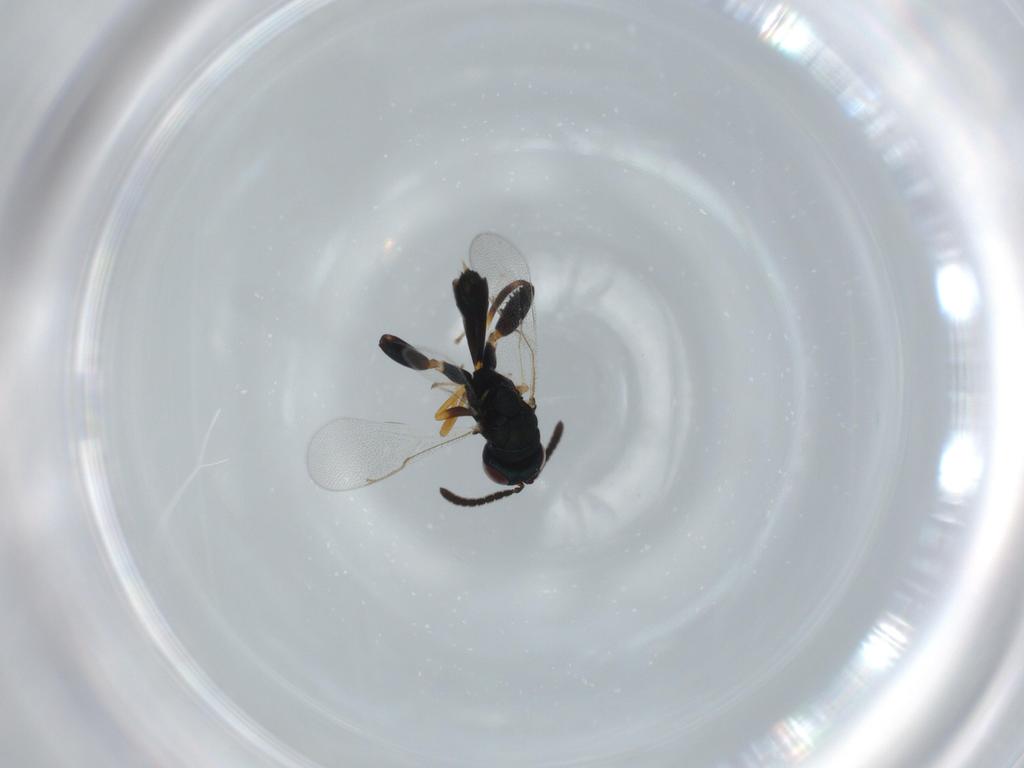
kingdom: Animalia
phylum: Arthropoda
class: Insecta
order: Hymenoptera
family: Torymidae
